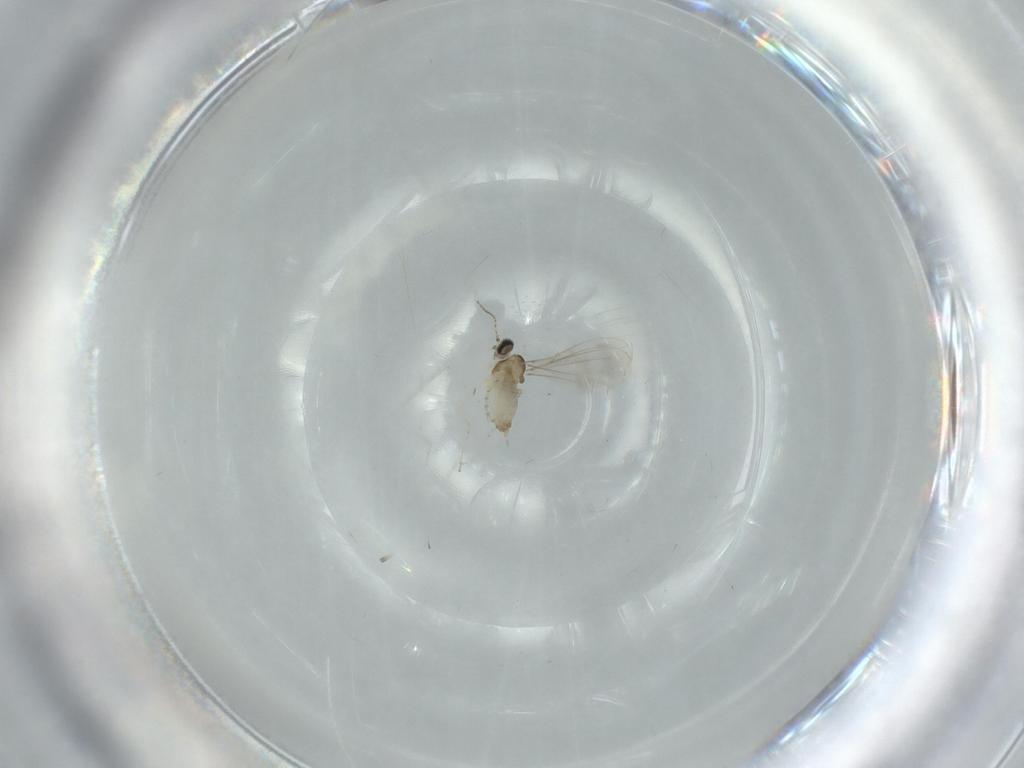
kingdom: Animalia
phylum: Arthropoda
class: Insecta
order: Diptera
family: Cecidomyiidae
